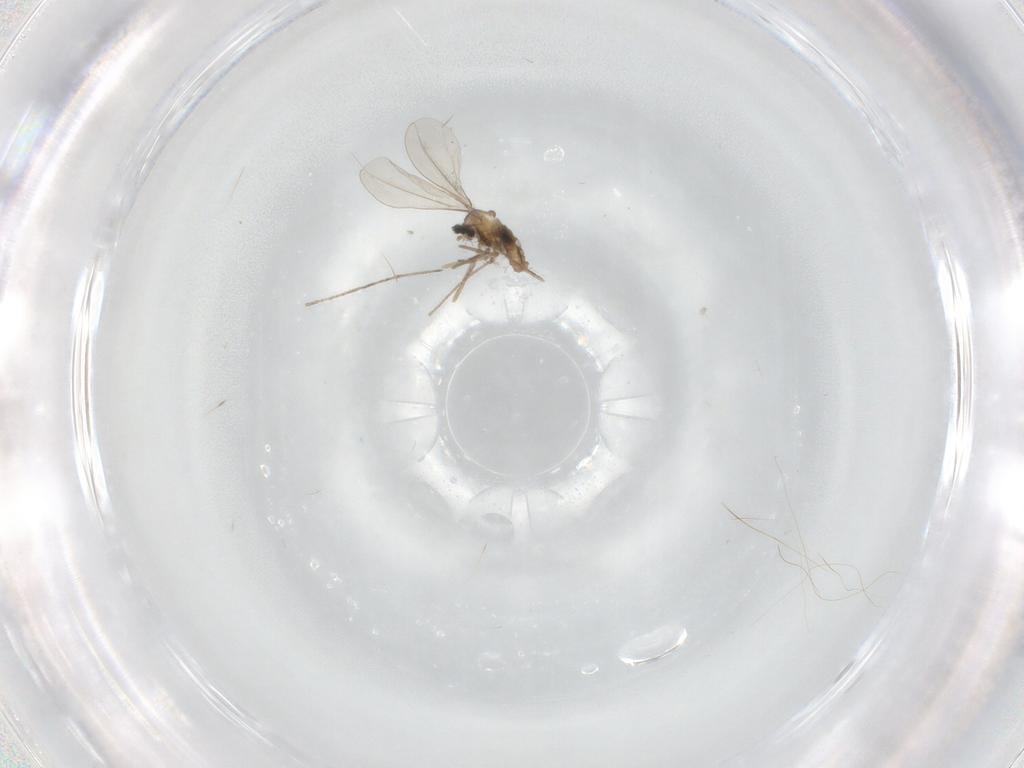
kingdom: Animalia
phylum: Arthropoda
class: Insecta
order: Diptera
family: Cecidomyiidae
